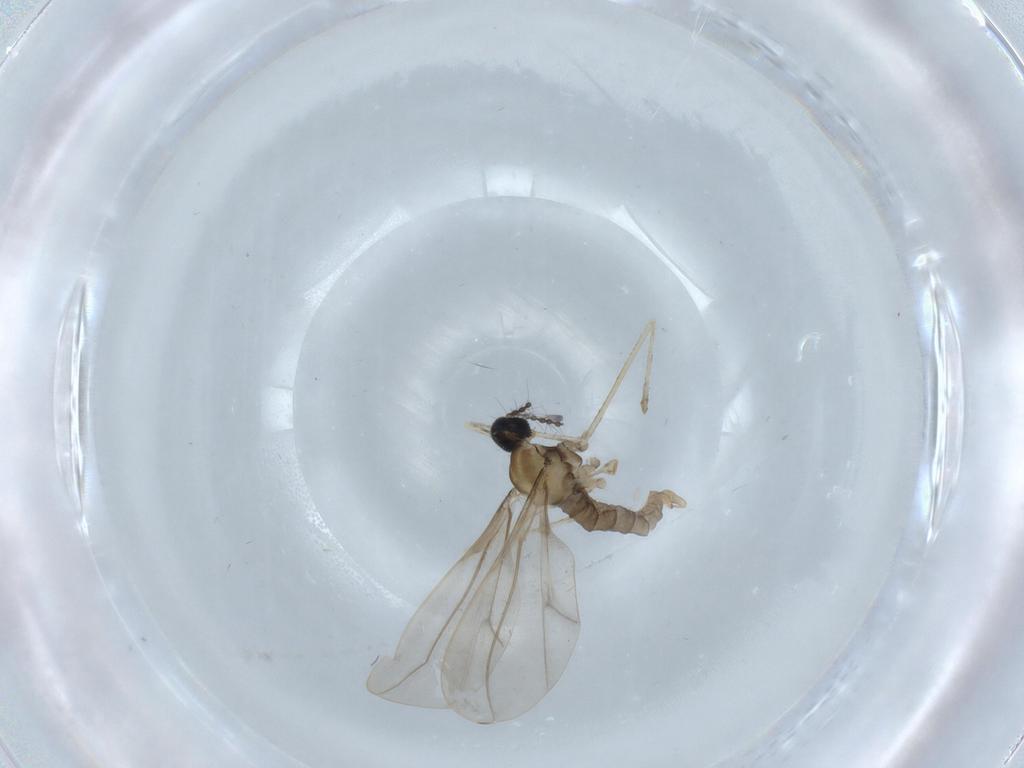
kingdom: Animalia
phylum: Arthropoda
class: Insecta
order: Diptera
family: Cecidomyiidae
